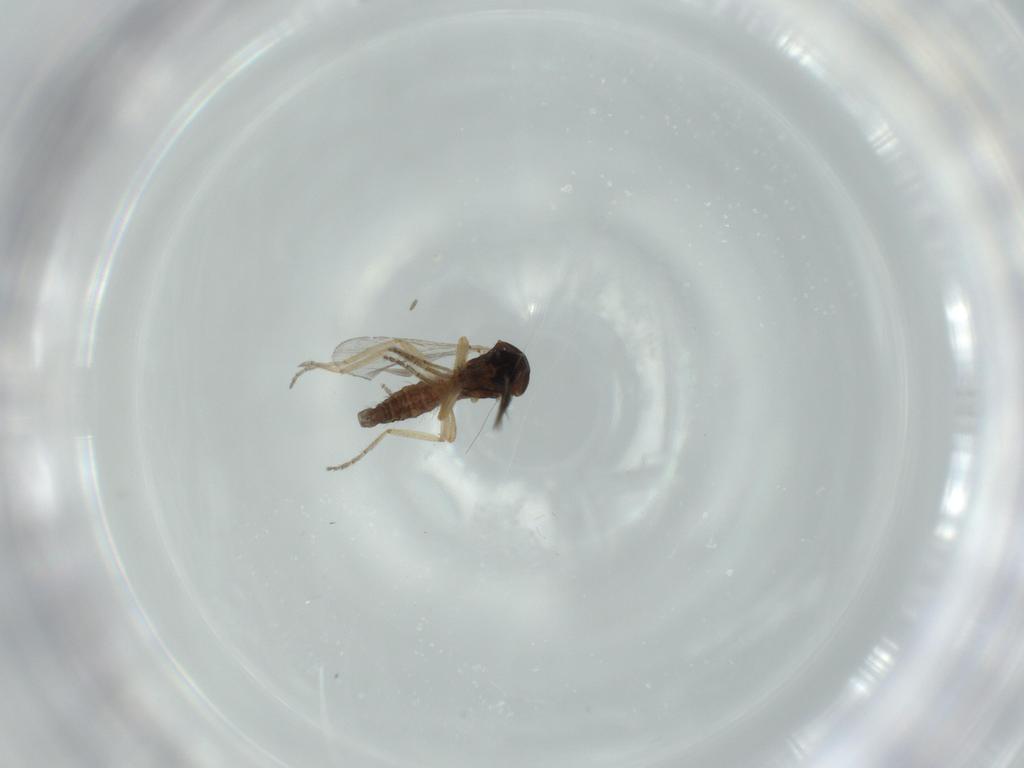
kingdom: Animalia
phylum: Arthropoda
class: Insecta
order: Diptera
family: Ceratopogonidae
